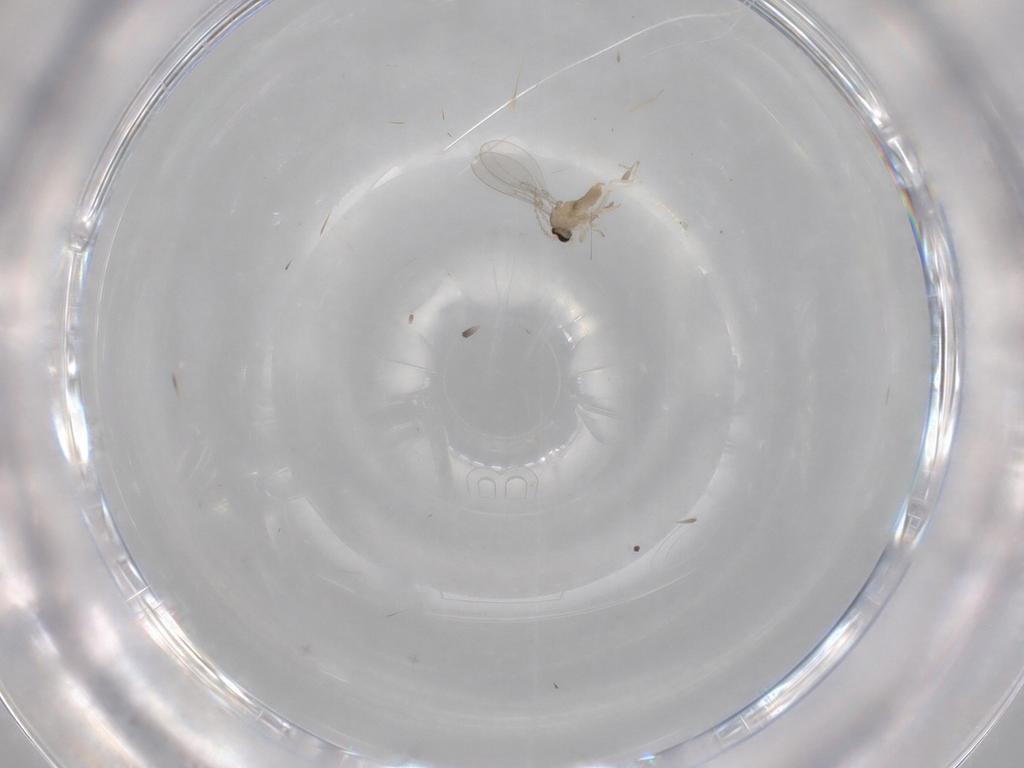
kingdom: Animalia
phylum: Arthropoda
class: Insecta
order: Diptera
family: Cecidomyiidae
